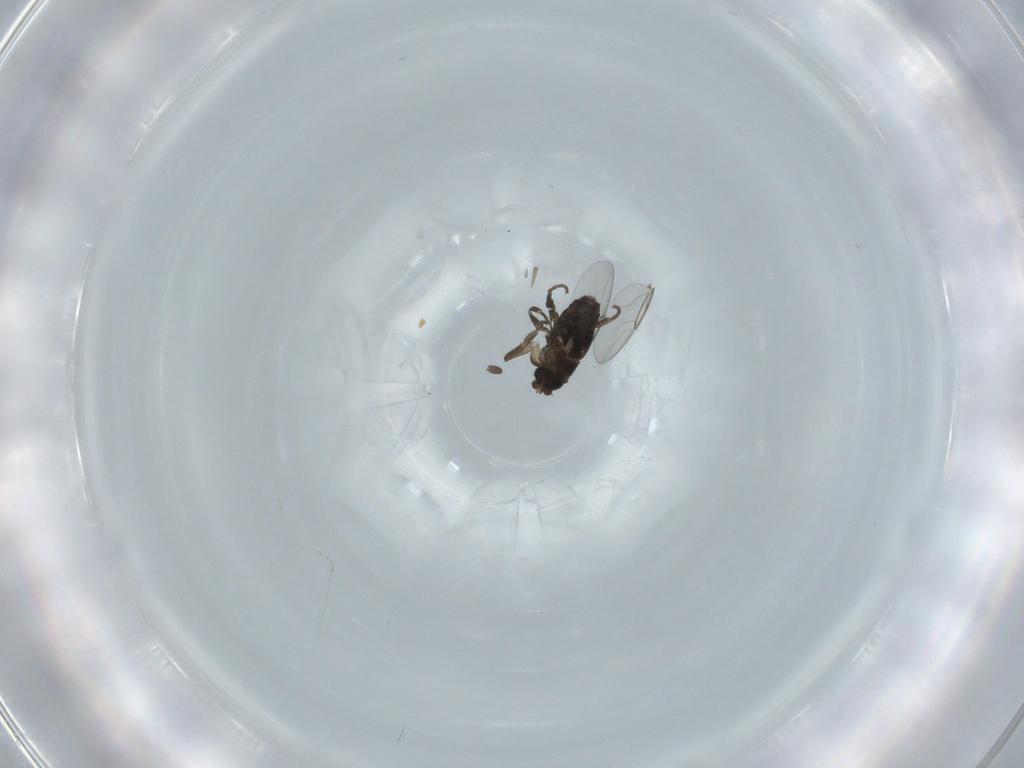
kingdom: Animalia
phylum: Arthropoda
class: Insecta
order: Diptera
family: Phoridae
